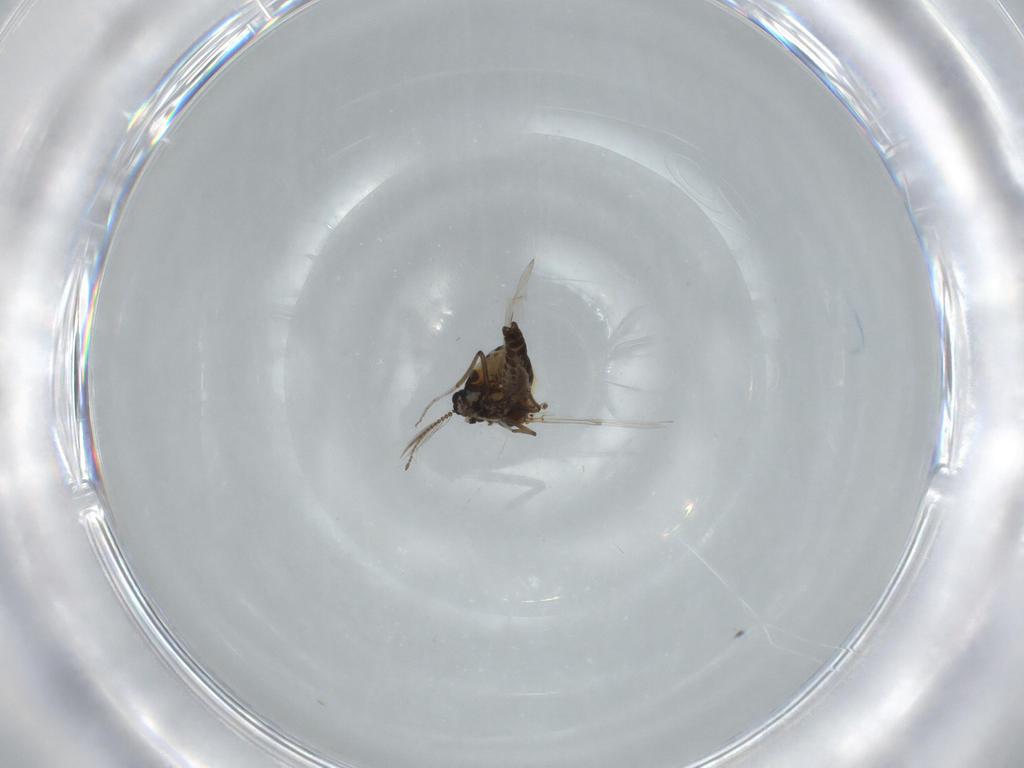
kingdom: Animalia
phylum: Arthropoda
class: Insecta
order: Diptera
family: Ceratopogonidae
